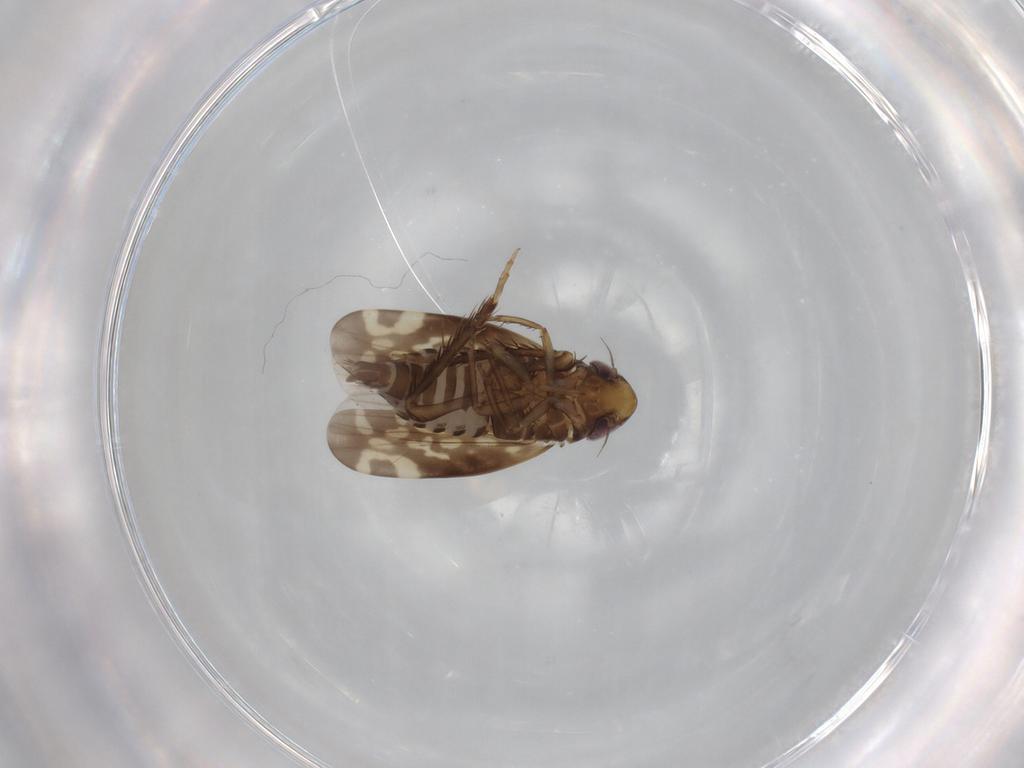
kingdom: Animalia
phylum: Arthropoda
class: Insecta
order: Hemiptera
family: Cicadellidae
